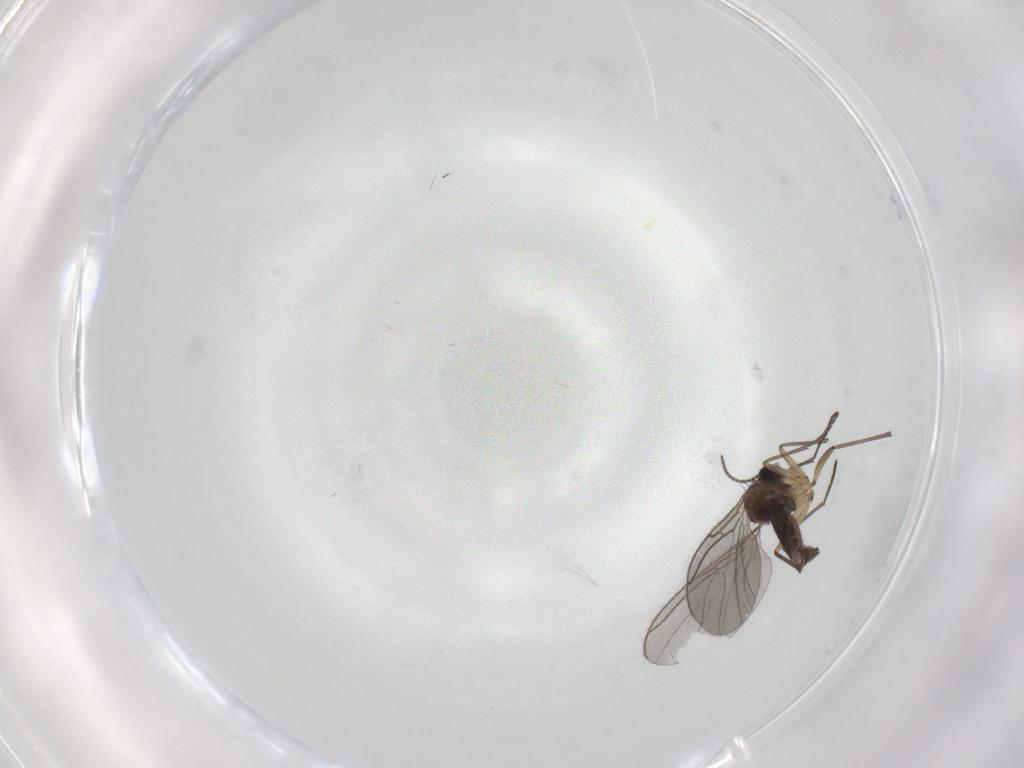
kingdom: Animalia
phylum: Arthropoda
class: Insecta
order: Diptera
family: Sciaridae
